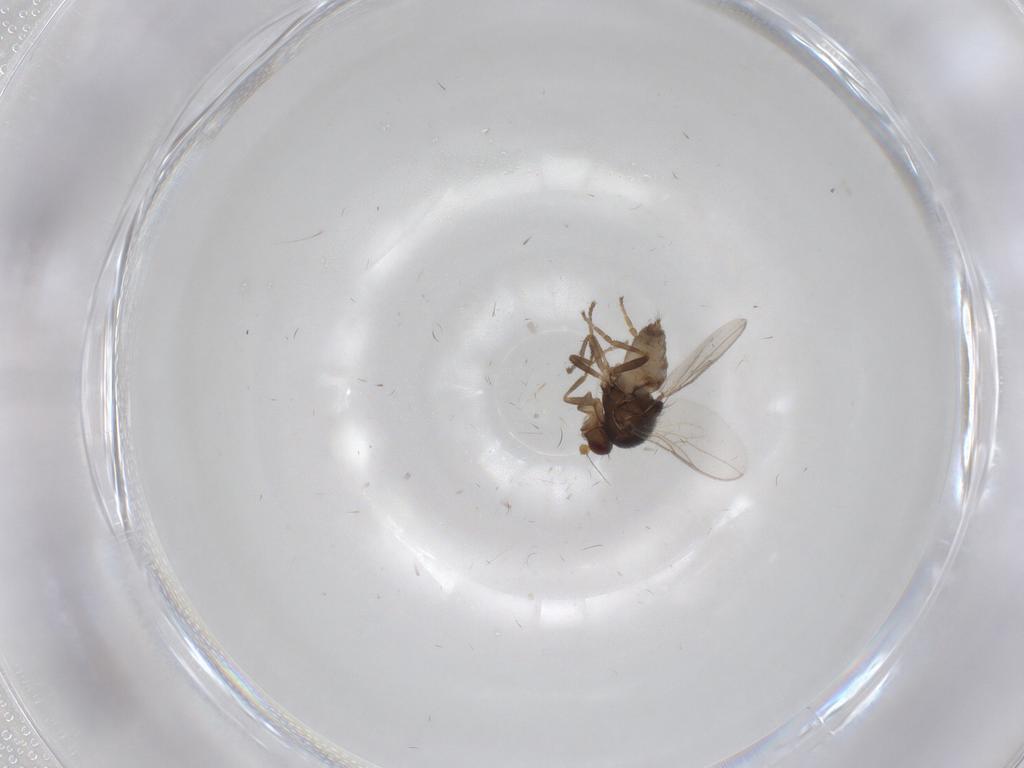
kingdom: Animalia
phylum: Arthropoda
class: Insecta
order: Diptera
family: Sphaeroceridae
